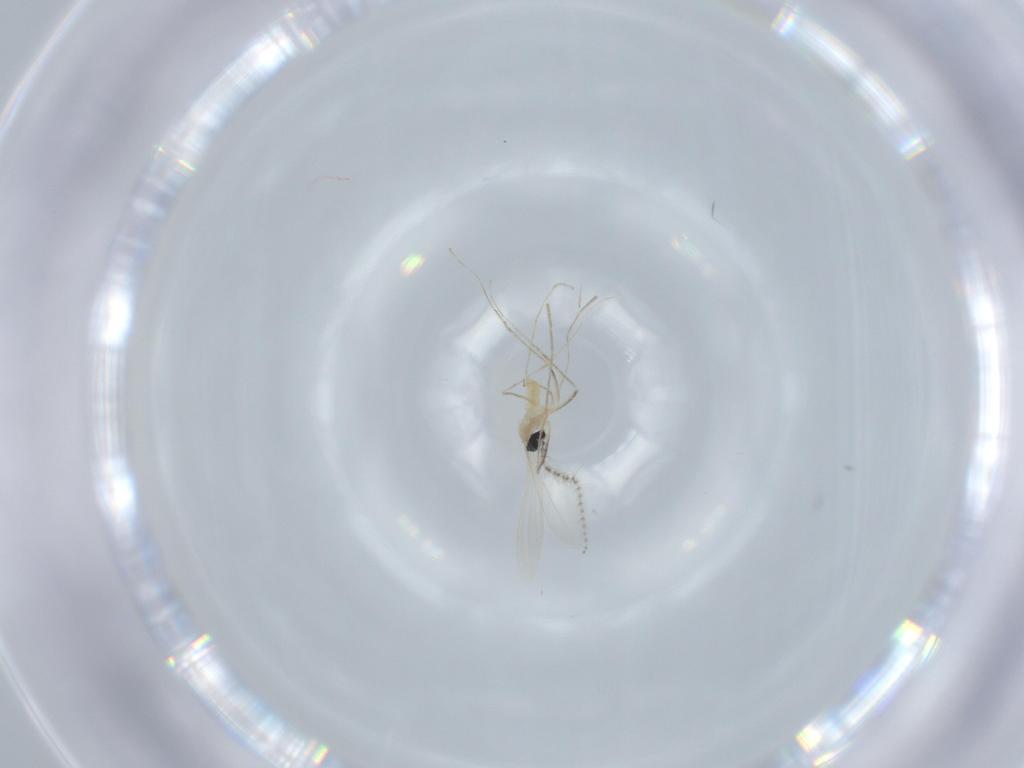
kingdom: Animalia
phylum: Arthropoda
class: Insecta
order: Diptera
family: Cecidomyiidae
